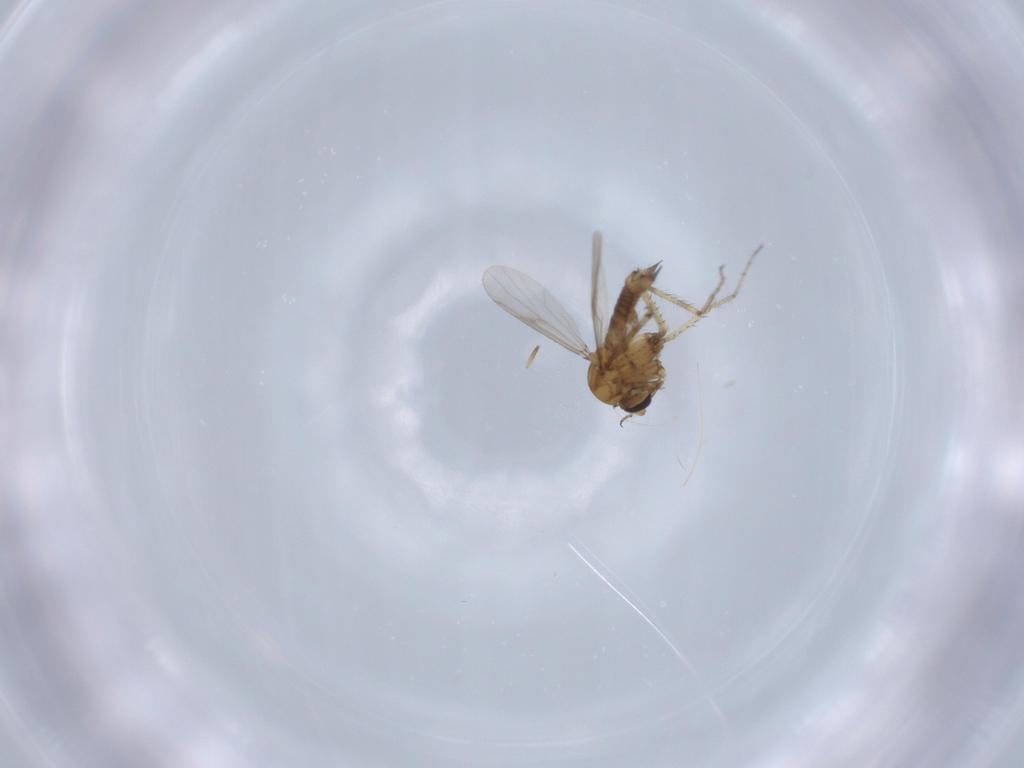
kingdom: Animalia
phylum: Arthropoda
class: Insecta
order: Diptera
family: Ceratopogonidae
